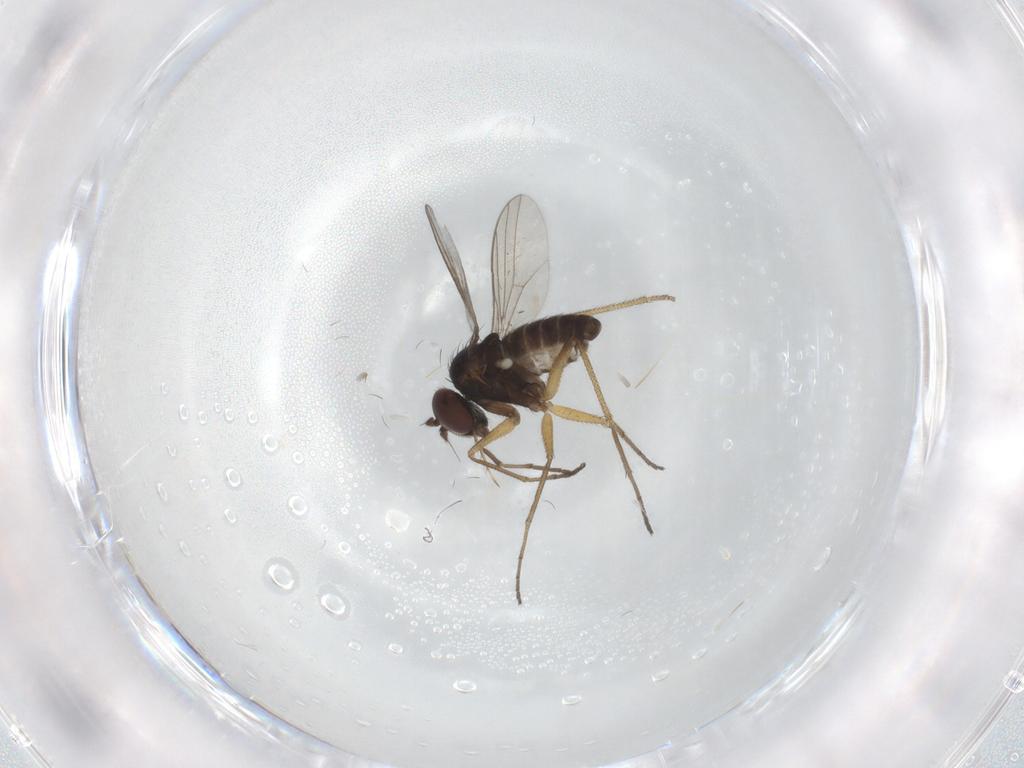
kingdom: Animalia
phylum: Arthropoda
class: Insecta
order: Diptera
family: Dolichopodidae
